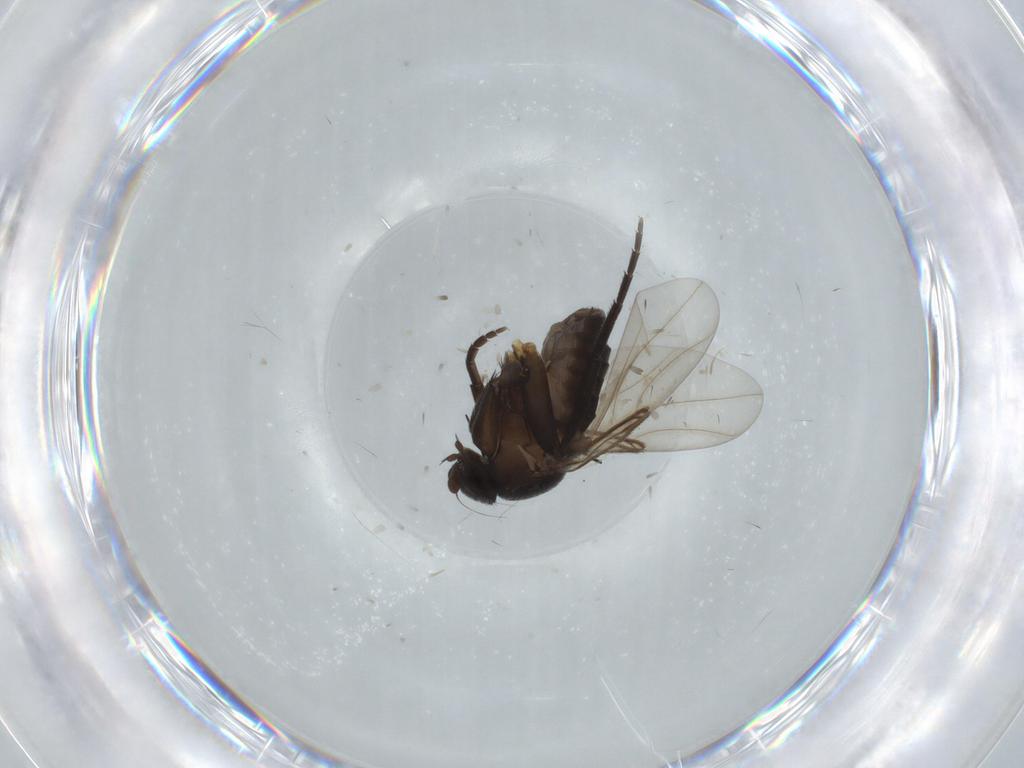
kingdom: Animalia
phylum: Arthropoda
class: Insecta
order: Diptera
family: Phoridae
